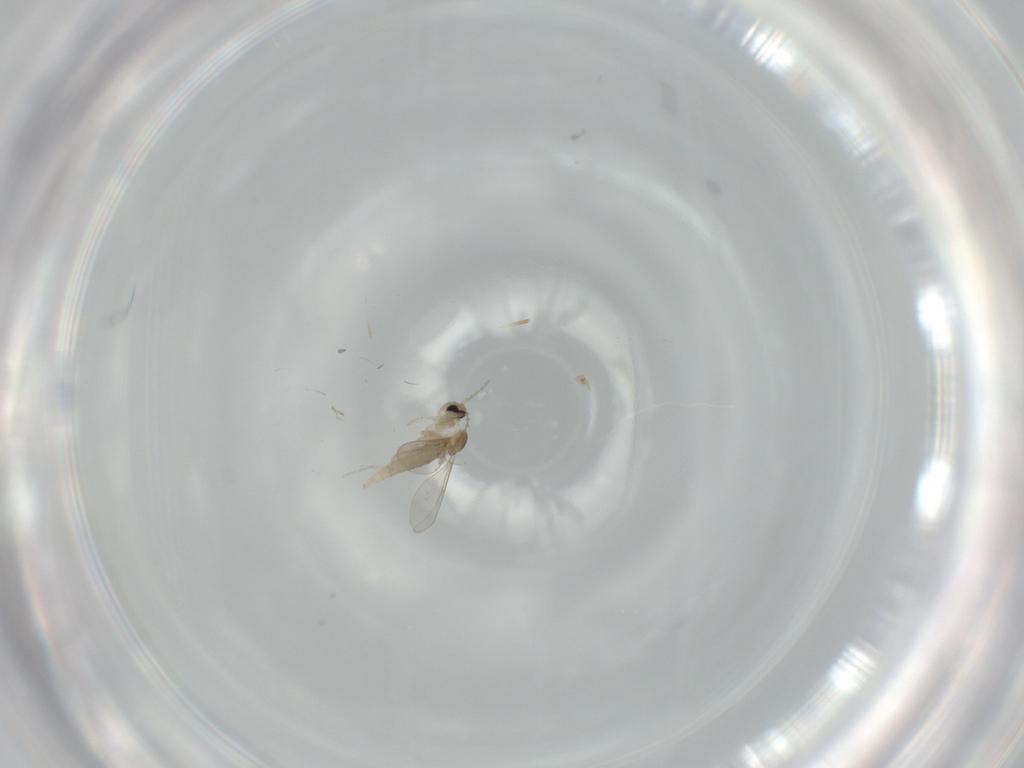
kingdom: Animalia
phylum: Arthropoda
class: Insecta
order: Diptera
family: Cecidomyiidae
